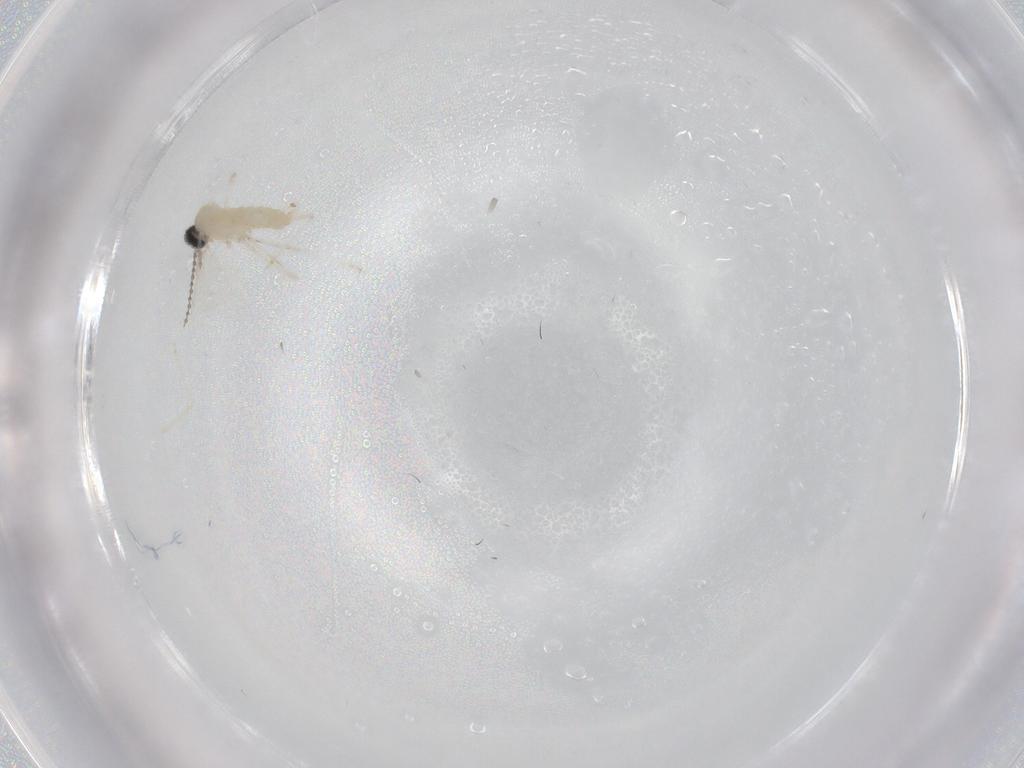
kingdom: Animalia
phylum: Arthropoda
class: Insecta
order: Diptera
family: Cecidomyiidae
